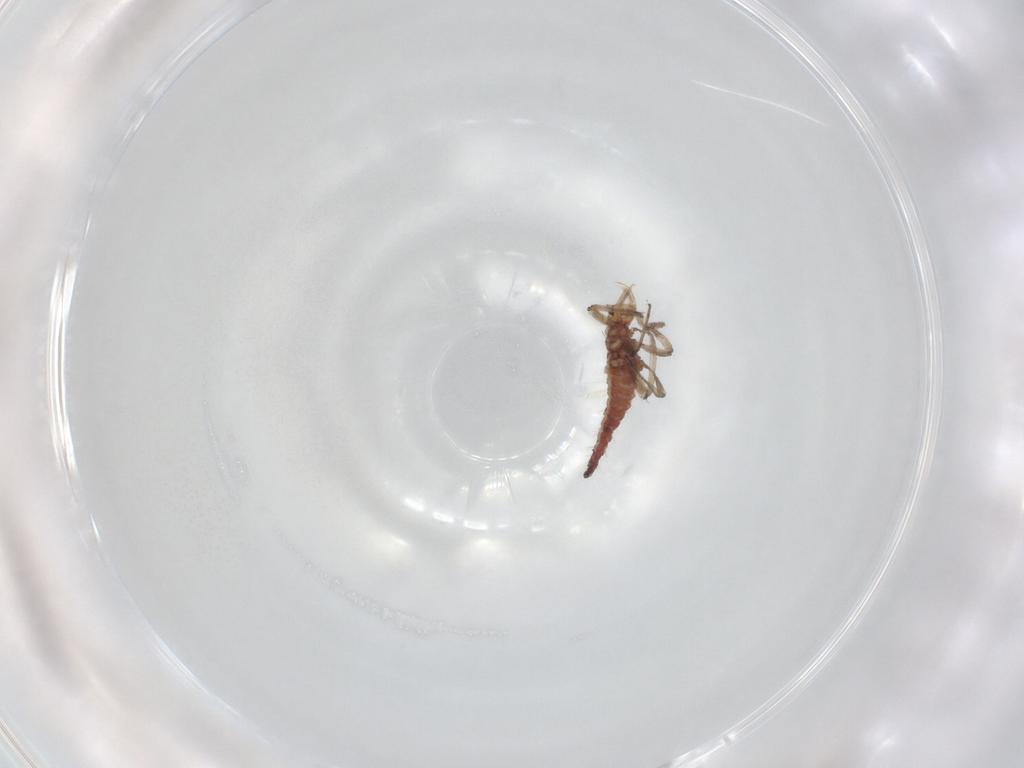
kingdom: Animalia
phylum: Arthropoda
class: Insecta
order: Neuroptera
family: Hemerobiidae
